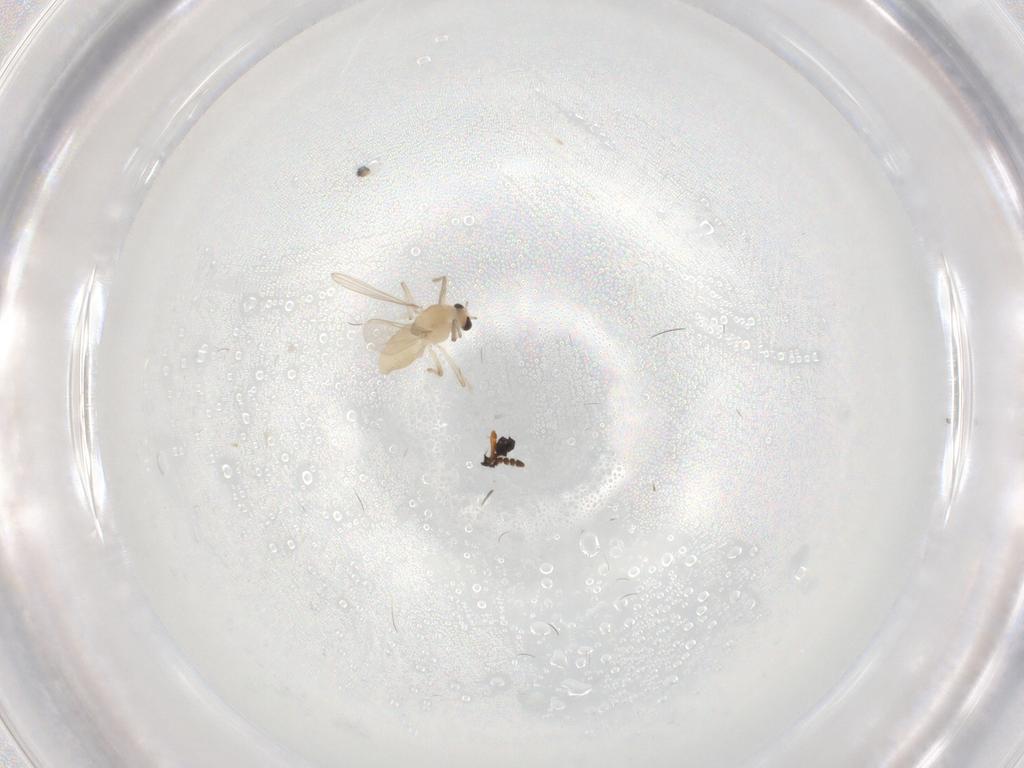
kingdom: Animalia
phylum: Arthropoda
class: Insecta
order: Diptera
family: Chironomidae
